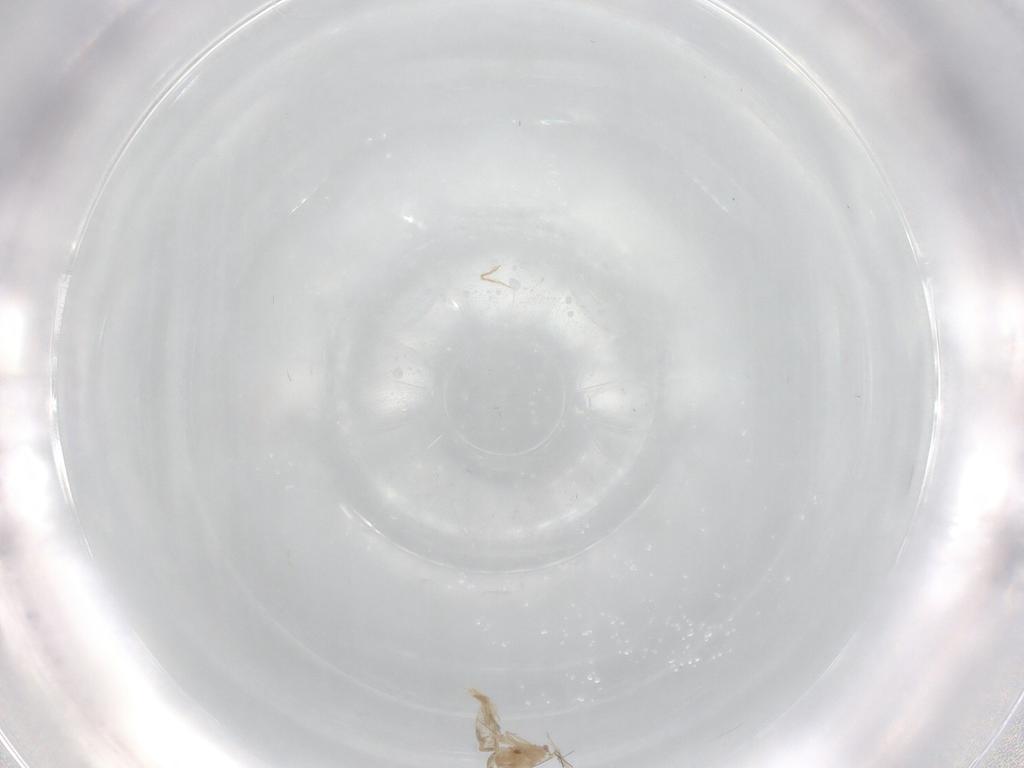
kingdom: Animalia
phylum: Arthropoda
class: Insecta
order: Diptera
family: Cecidomyiidae
